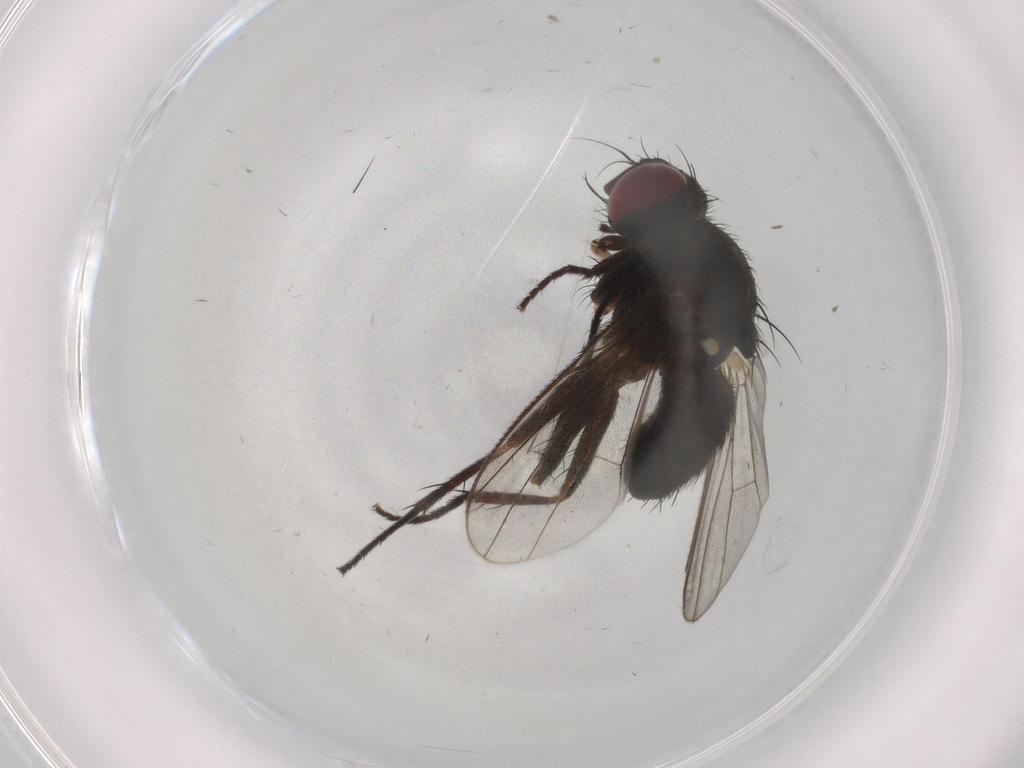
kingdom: Animalia
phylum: Arthropoda
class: Insecta
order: Diptera
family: Muscidae
